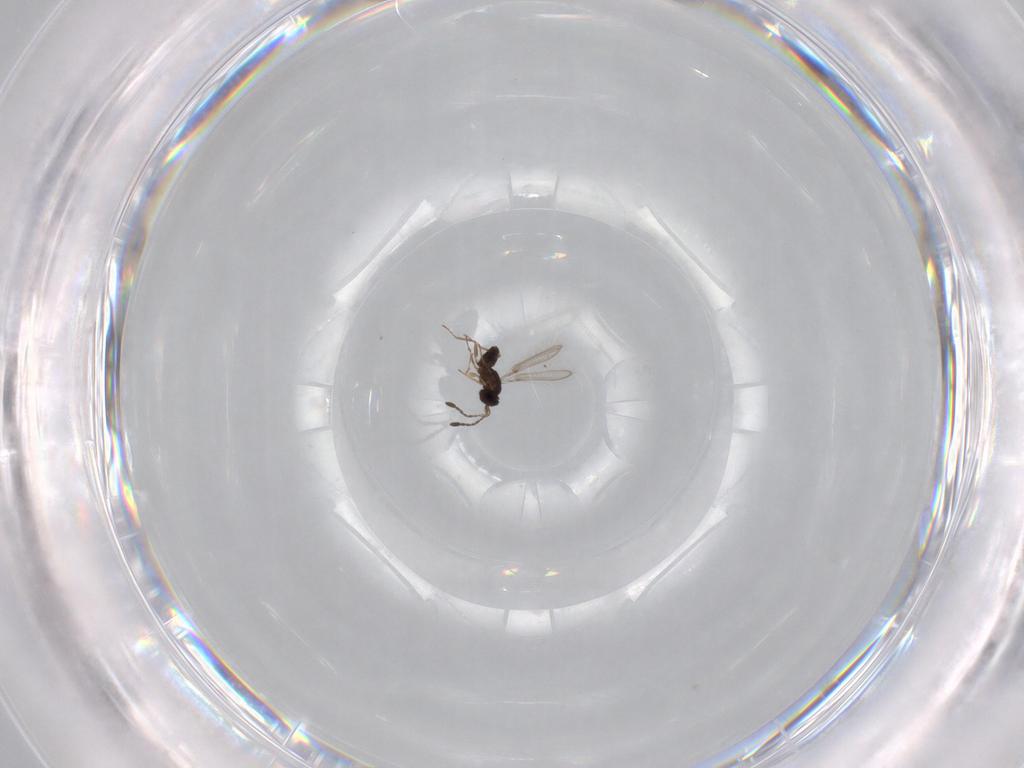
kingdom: Animalia
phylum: Arthropoda
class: Insecta
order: Hymenoptera
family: Mymaridae
